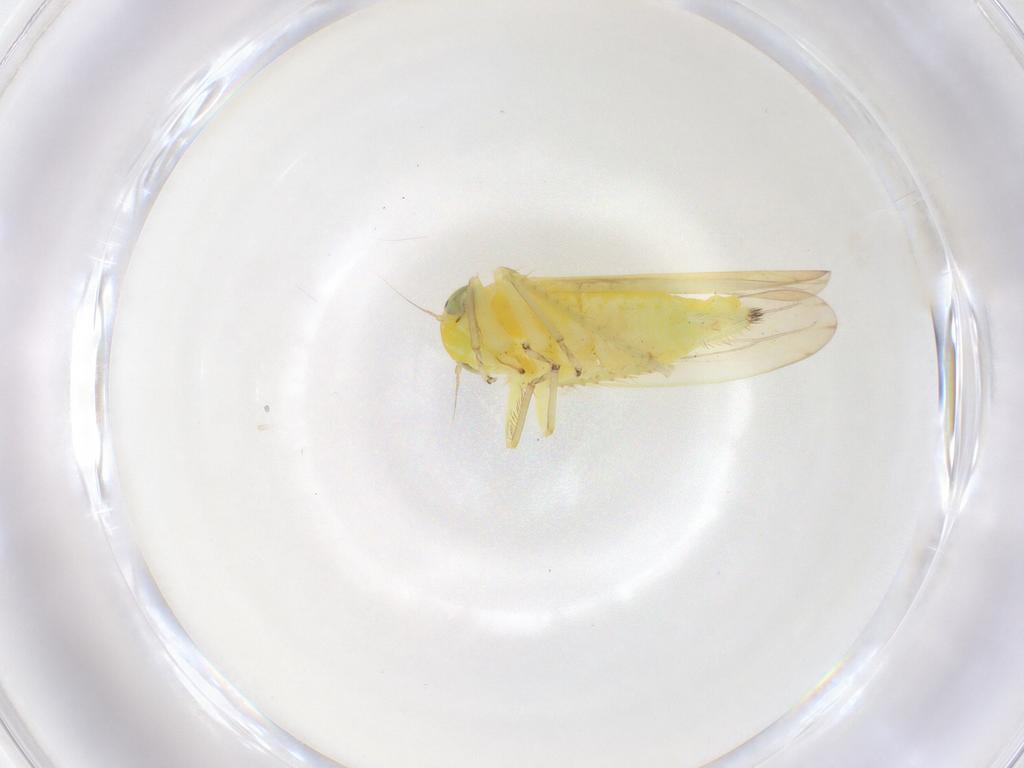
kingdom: Animalia
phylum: Arthropoda
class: Insecta
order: Hemiptera
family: Cicadellidae
